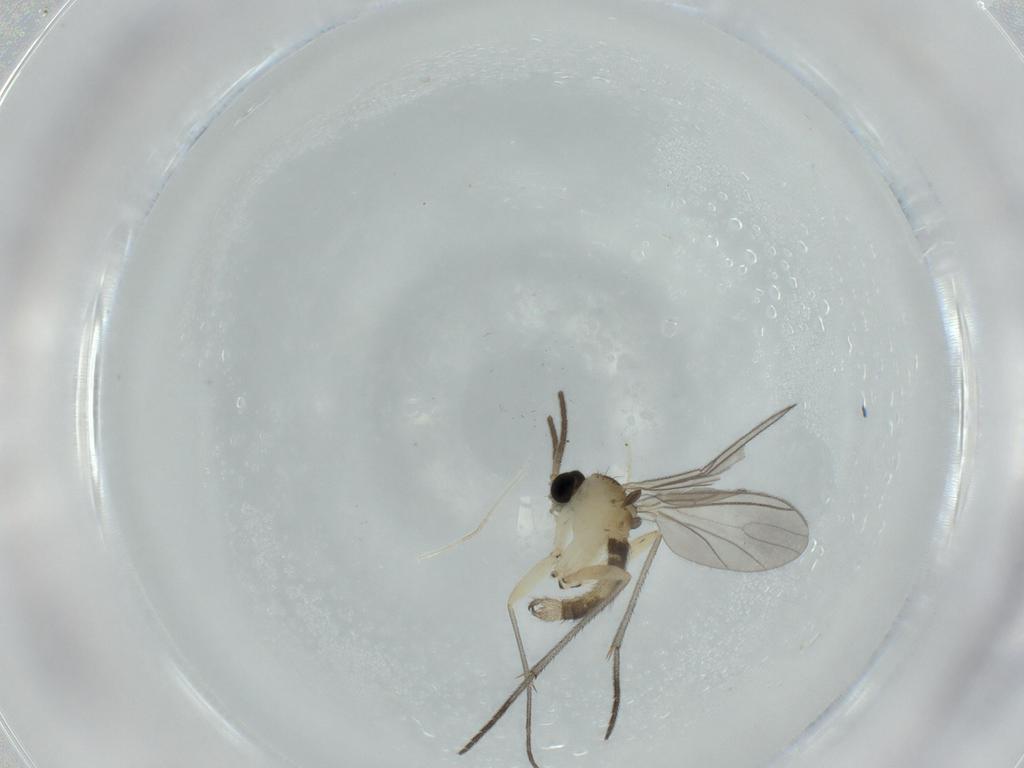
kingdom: Animalia
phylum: Arthropoda
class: Insecta
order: Diptera
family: Sciaridae
